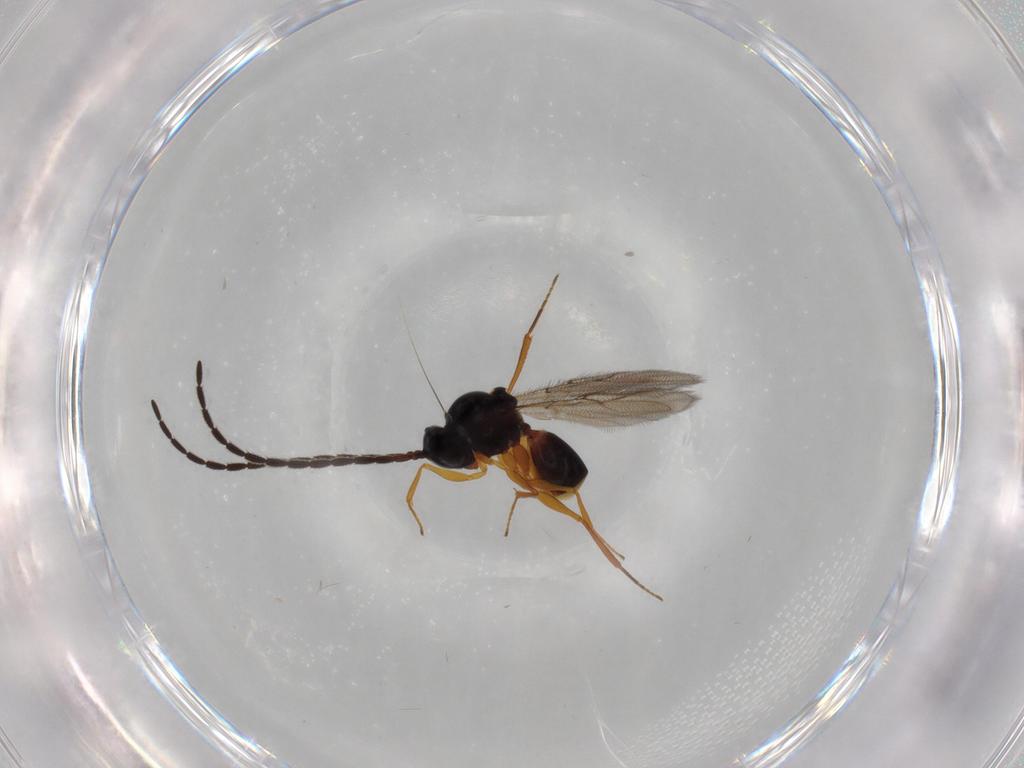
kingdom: Animalia
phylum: Arthropoda
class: Insecta
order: Hymenoptera
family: Figitidae
